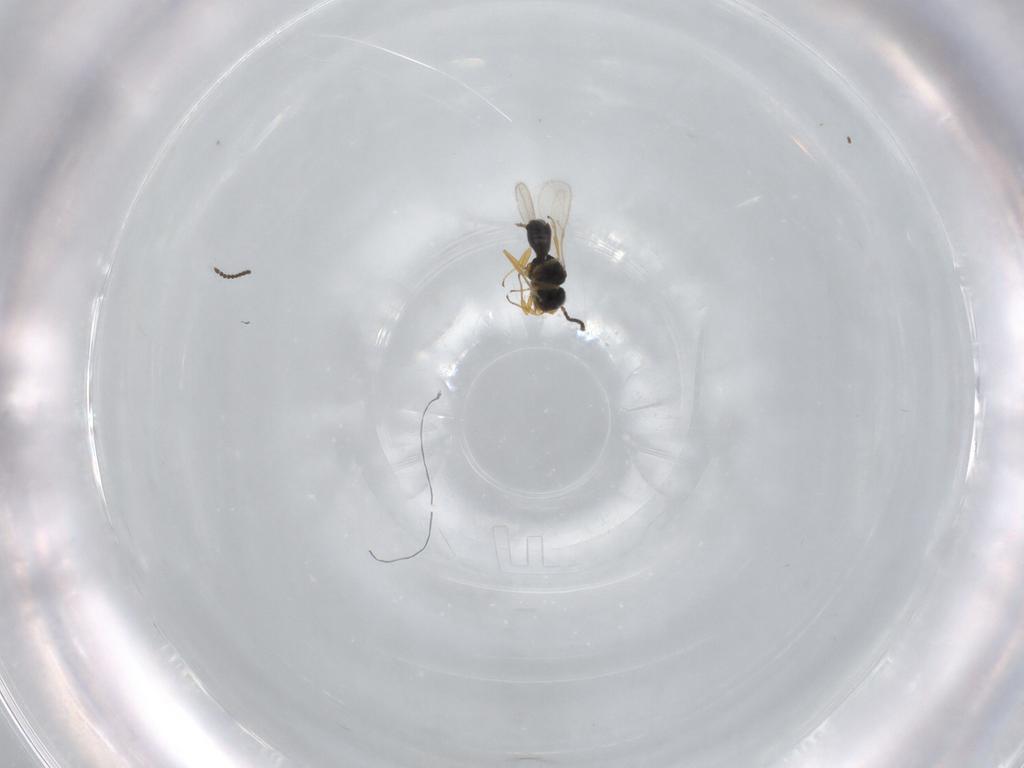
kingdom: Animalia
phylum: Arthropoda
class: Insecta
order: Hymenoptera
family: Scelionidae
